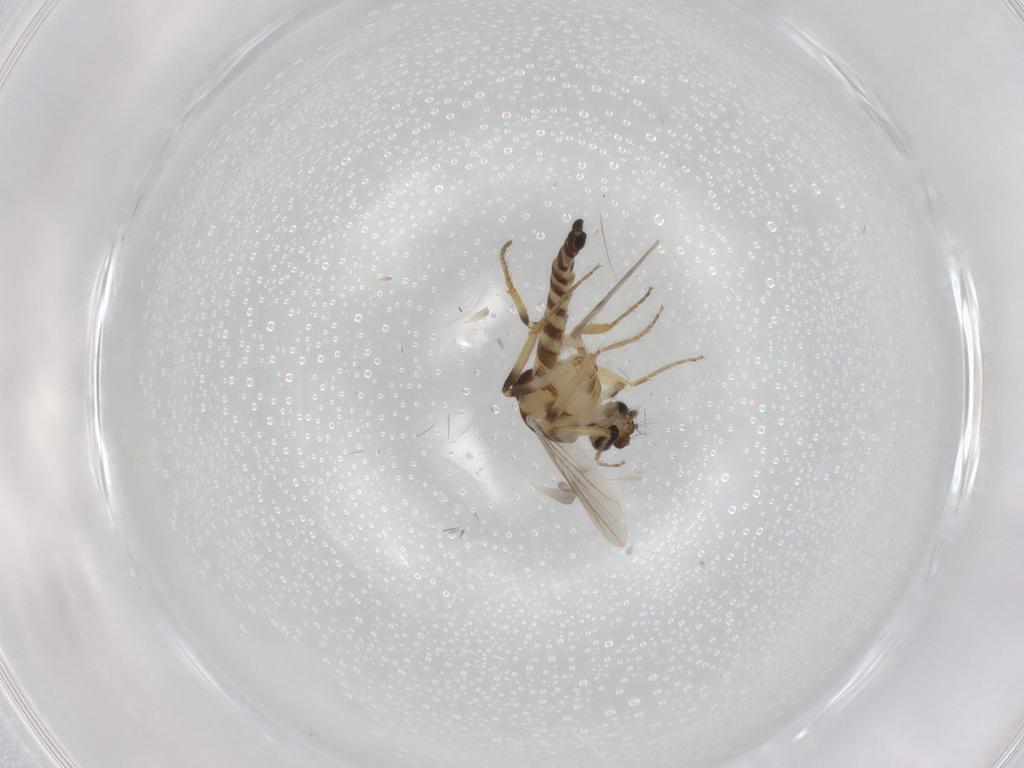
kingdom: Animalia
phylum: Arthropoda
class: Insecta
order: Diptera
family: Ceratopogonidae
